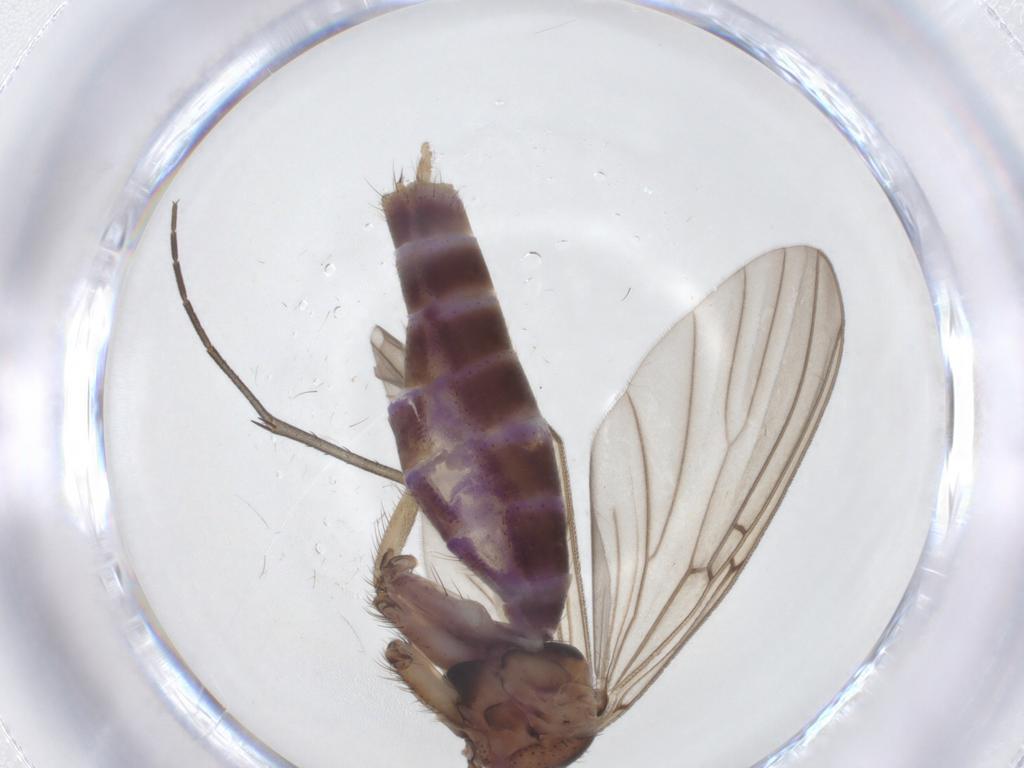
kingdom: Animalia
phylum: Arthropoda
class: Insecta
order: Diptera
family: Mycetophilidae
